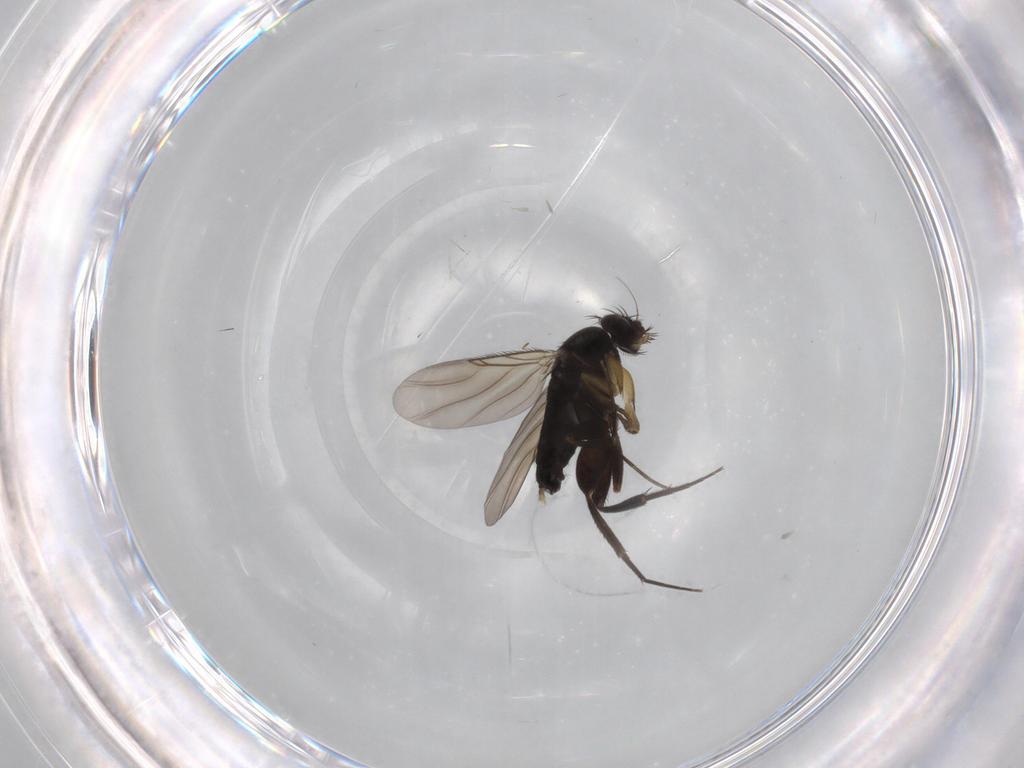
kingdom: Animalia
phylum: Arthropoda
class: Insecta
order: Diptera
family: Phoridae
